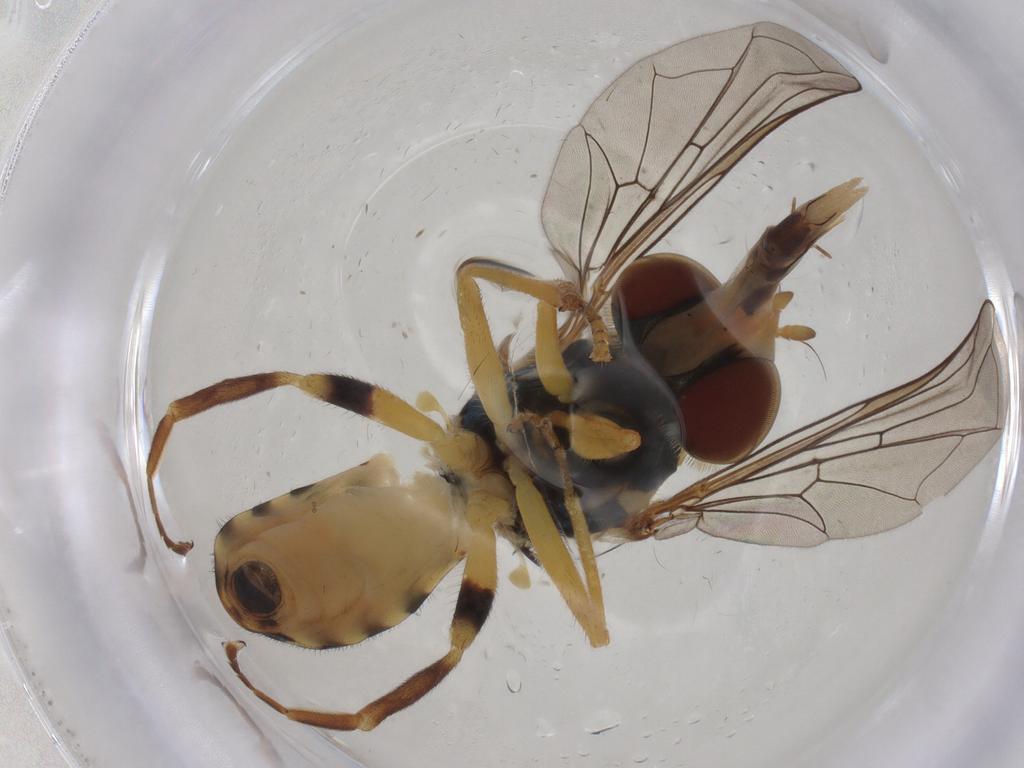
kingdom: Animalia
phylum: Arthropoda
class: Insecta
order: Diptera
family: Syrphidae
